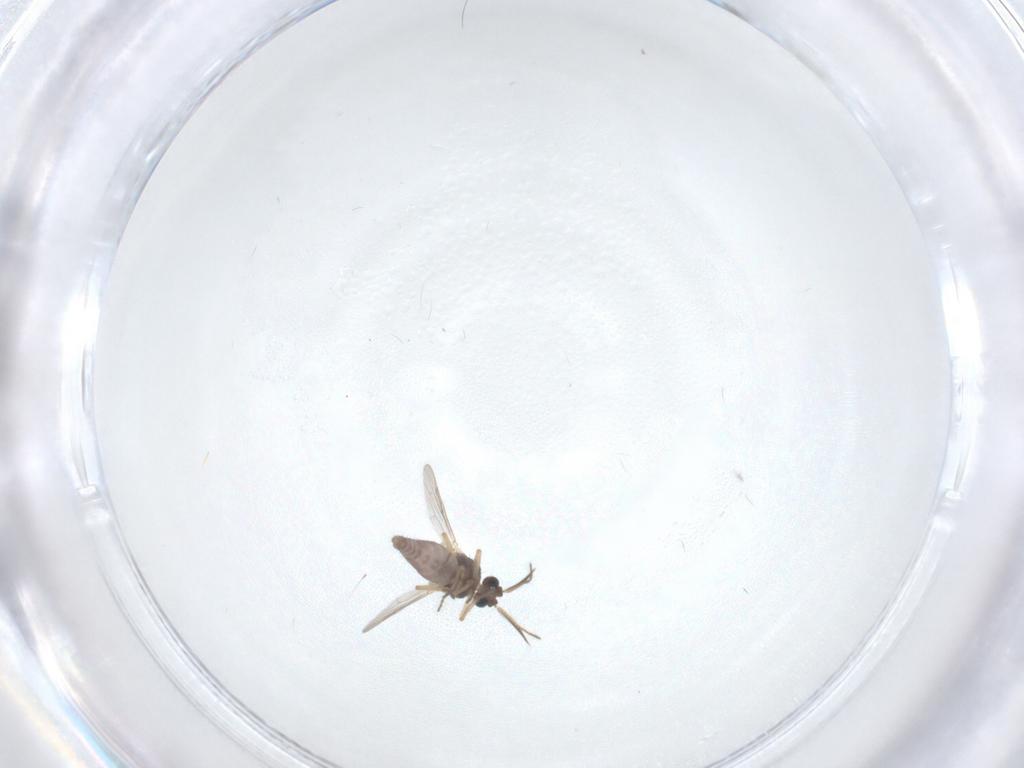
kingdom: Animalia
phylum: Arthropoda
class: Insecta
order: Diptera
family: Ceratopogonidae
